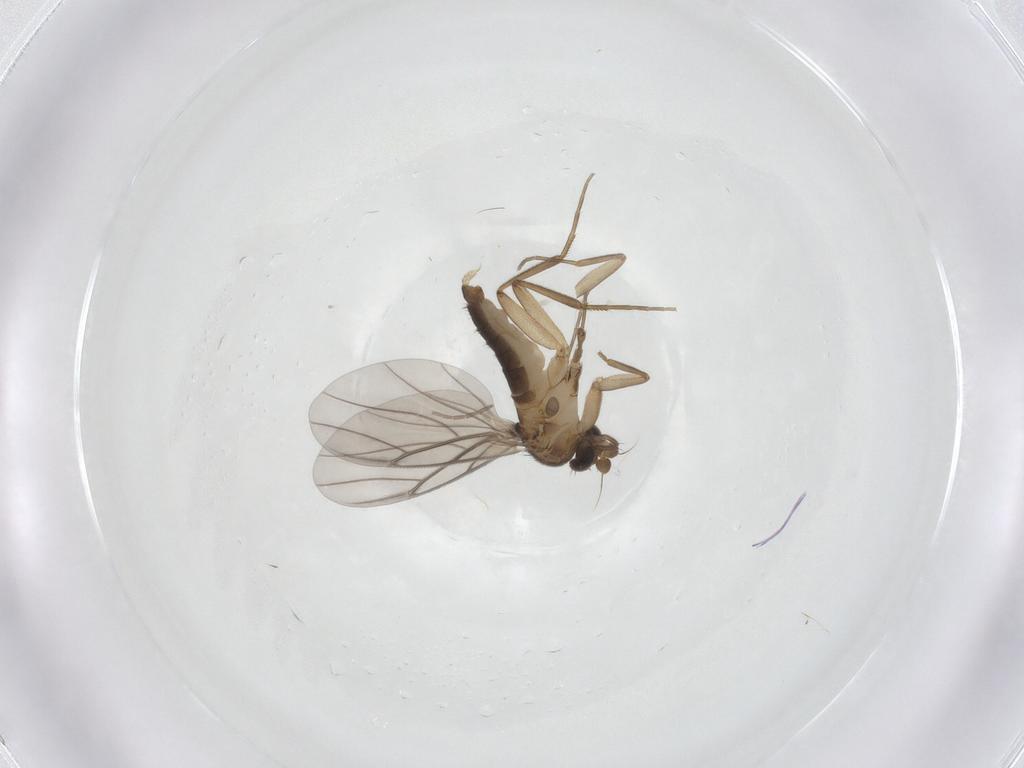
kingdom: Animalia
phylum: Arthropoda
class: Insecta
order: Diptera
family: Phoridae
